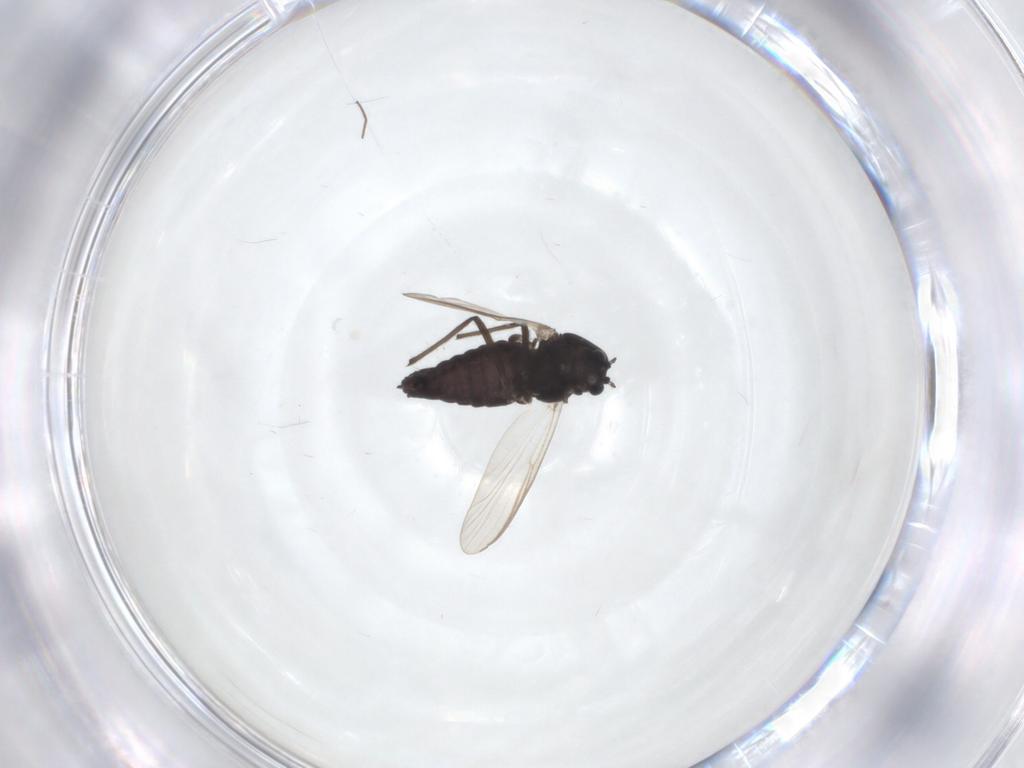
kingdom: Animalia
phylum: Arthropoda
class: Insecta
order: Diptera
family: Chironomidae
